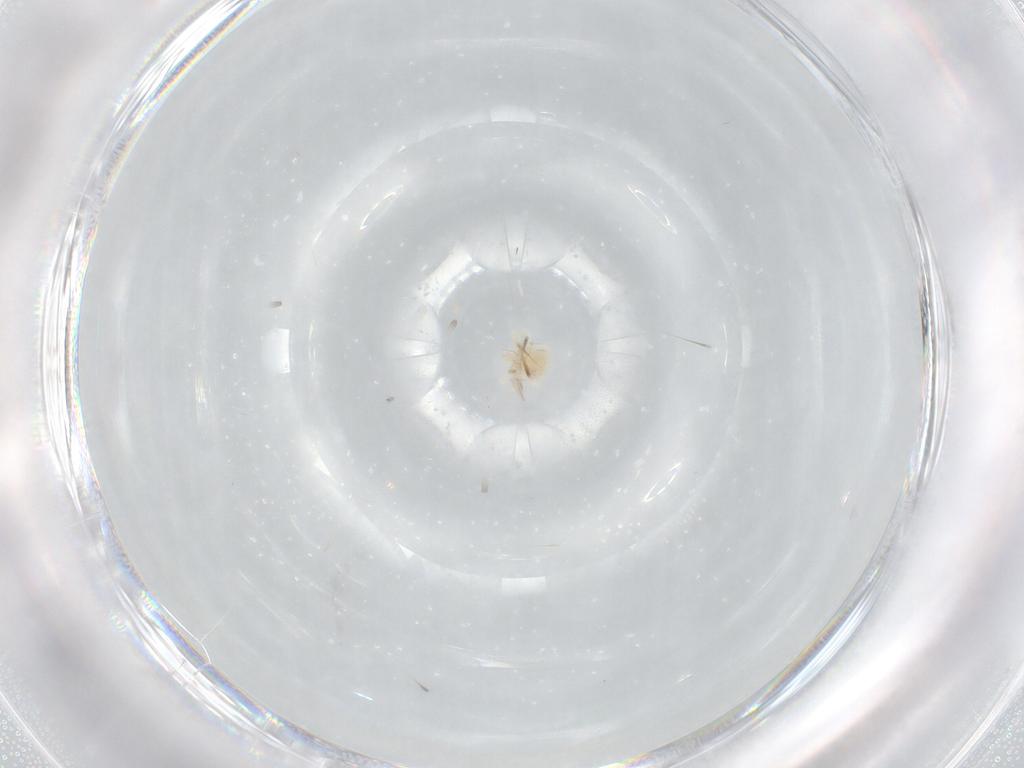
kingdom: Animalia
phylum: Arthropoda
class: Arachnida
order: Trombidiformes
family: Anystidae
